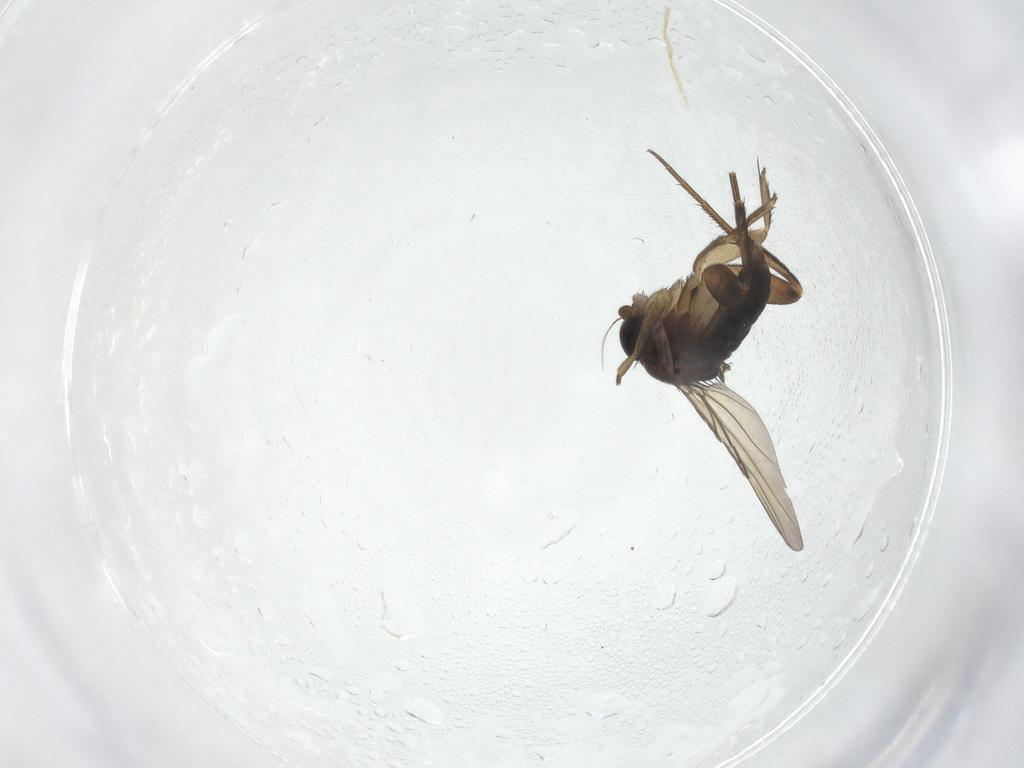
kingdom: Animalia
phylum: Arthropoda
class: Insecta
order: Diptera
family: Phoridae
